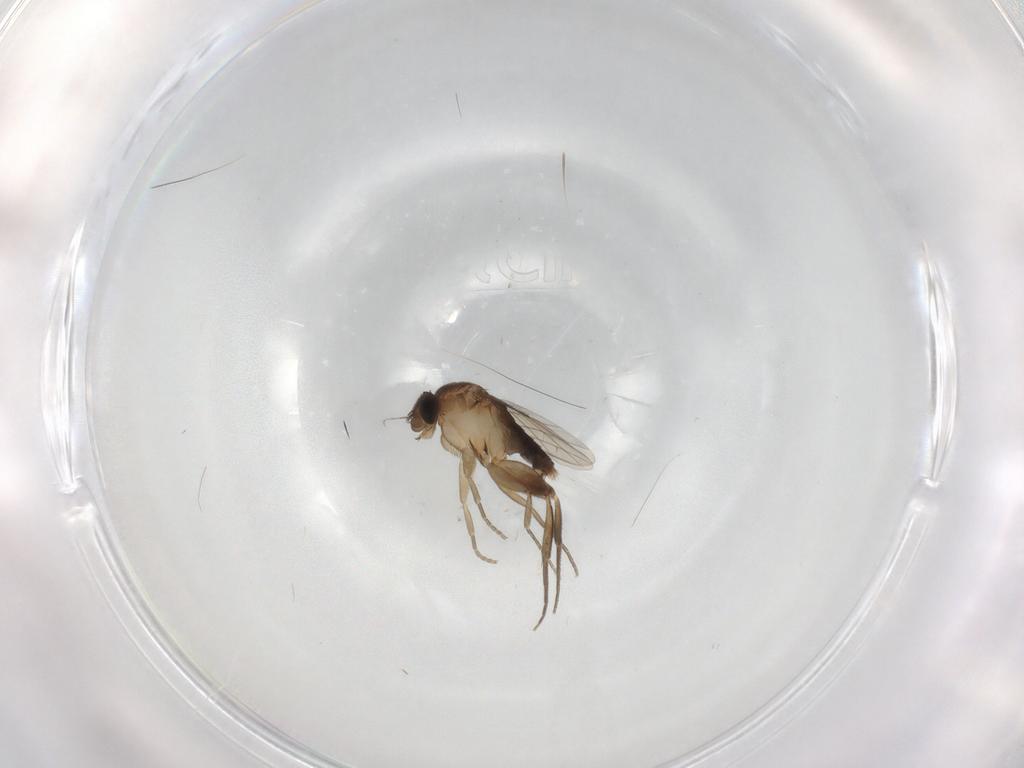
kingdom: Animalia
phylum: Arthropoda
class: Insecta
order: Diptera
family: Phoridae
